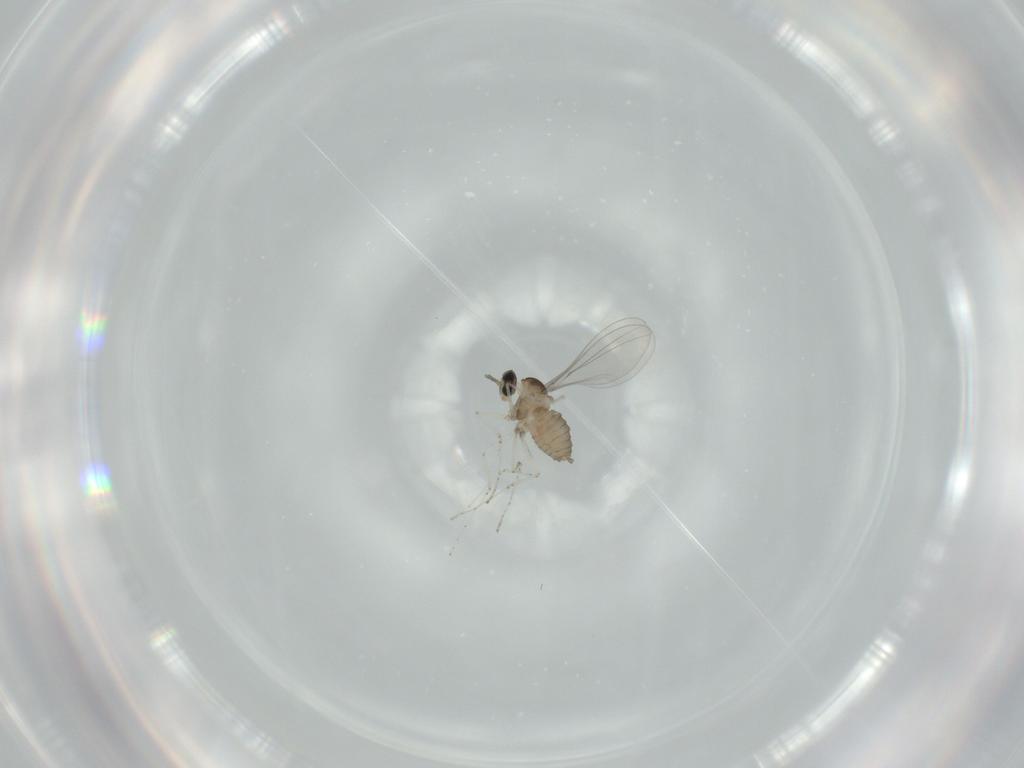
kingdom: Animalia
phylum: Arthropoda
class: Insecta
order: Diptera
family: Cecidomyiidae
